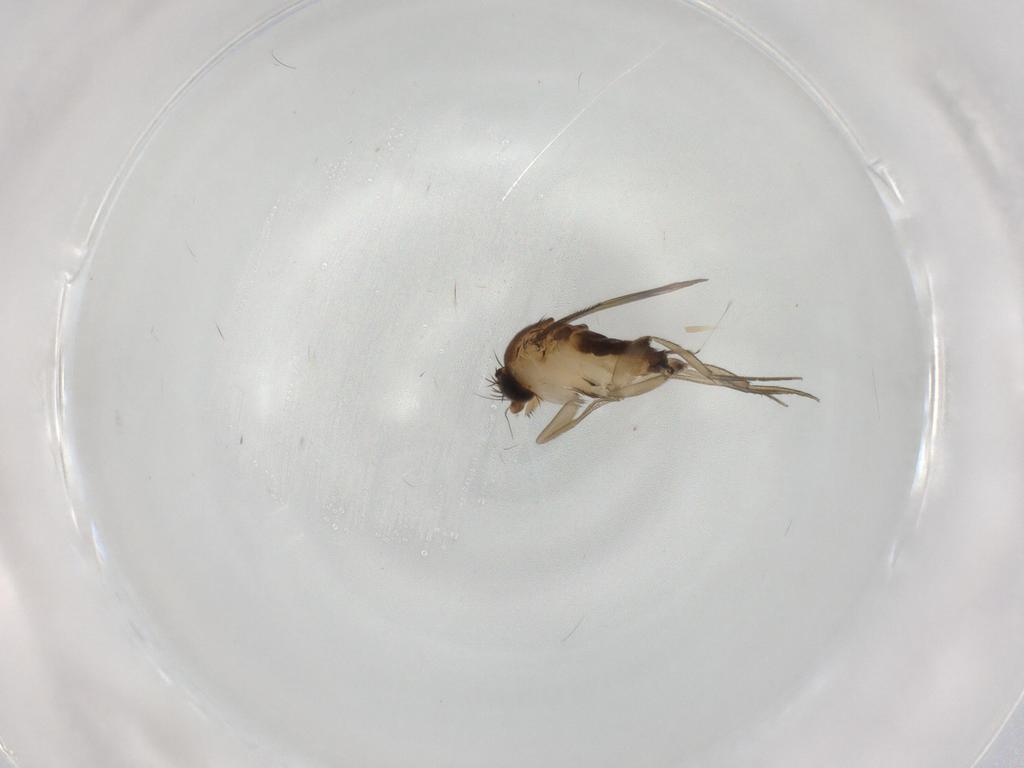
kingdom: Animalia
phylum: Arthropoda
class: Insecta
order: Diptera
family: Phoridae
